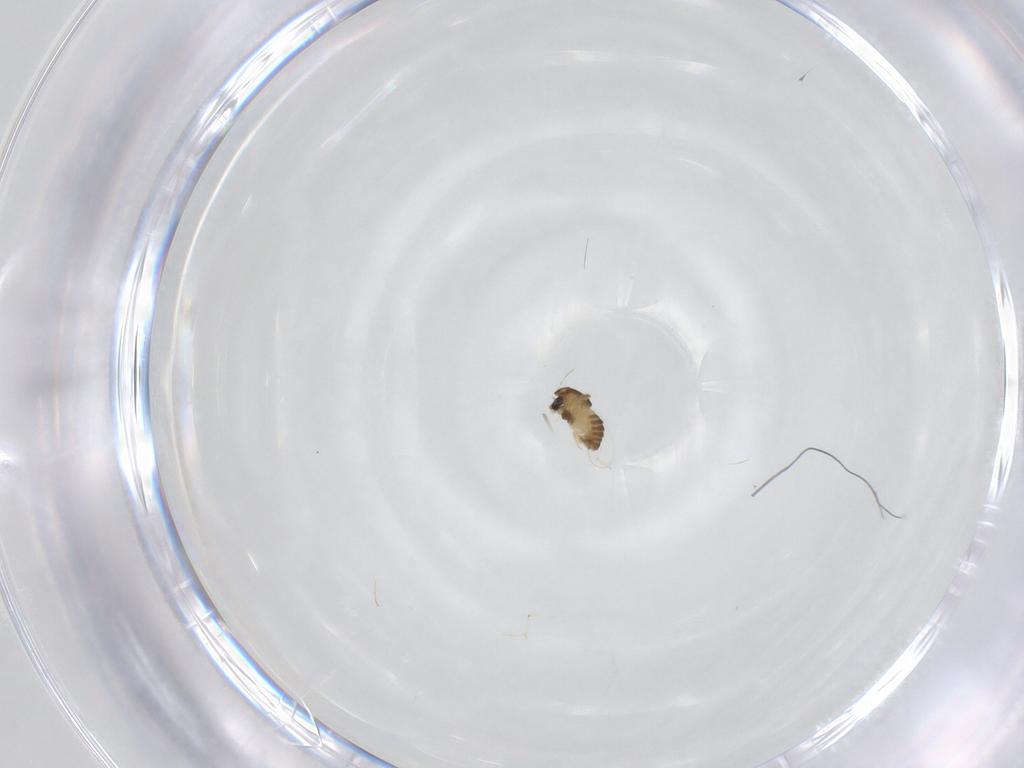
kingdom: Animalia
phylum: Arthropoda
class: Insecta
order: Diptera
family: Chironomidae
